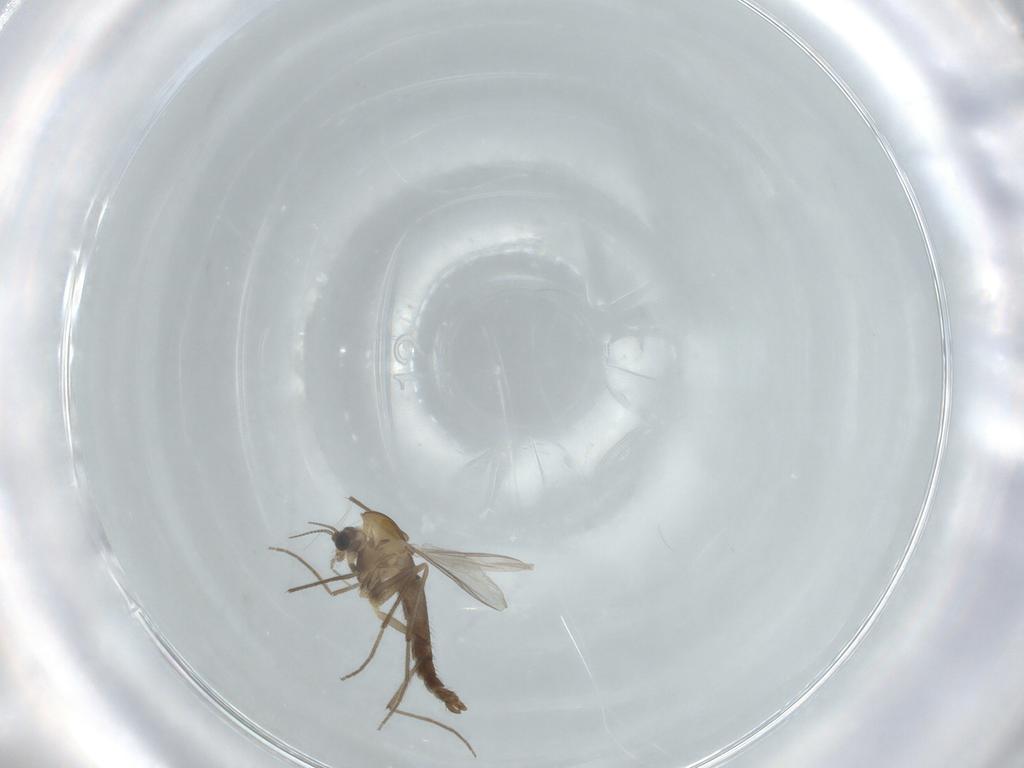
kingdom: Animalia
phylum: Arthropoda
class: Insecta
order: Diptera
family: Chironomidae
